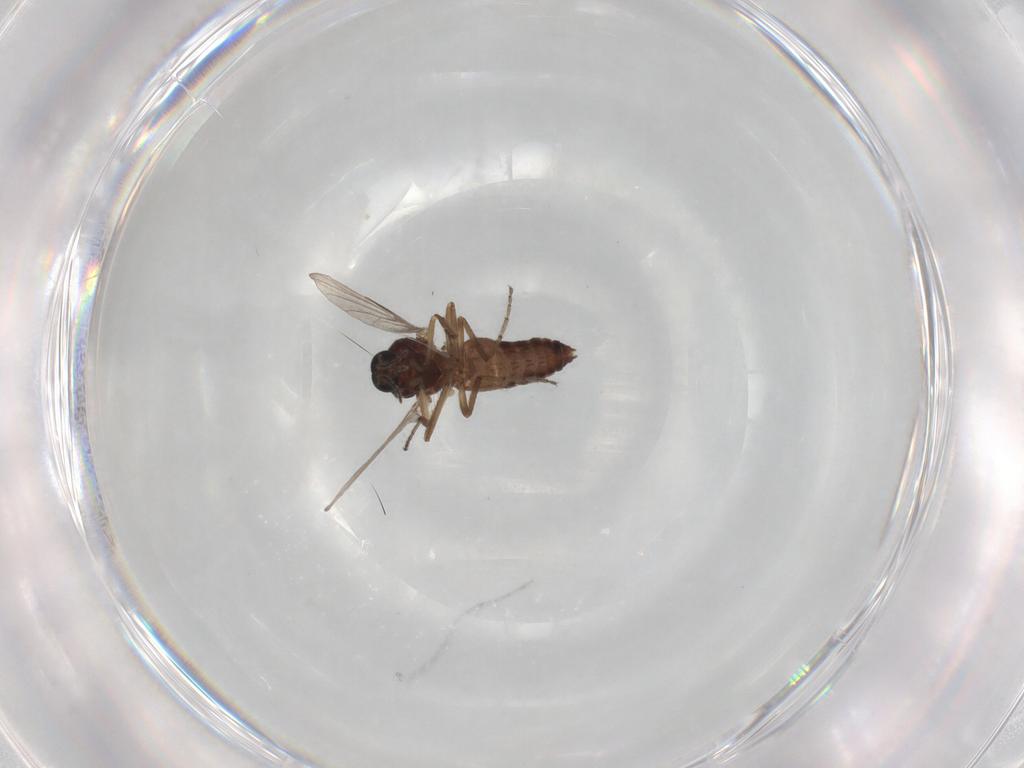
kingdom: Animalia
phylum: Arthropoda
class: Insecta
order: Diptera
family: Ceratopogonidae
